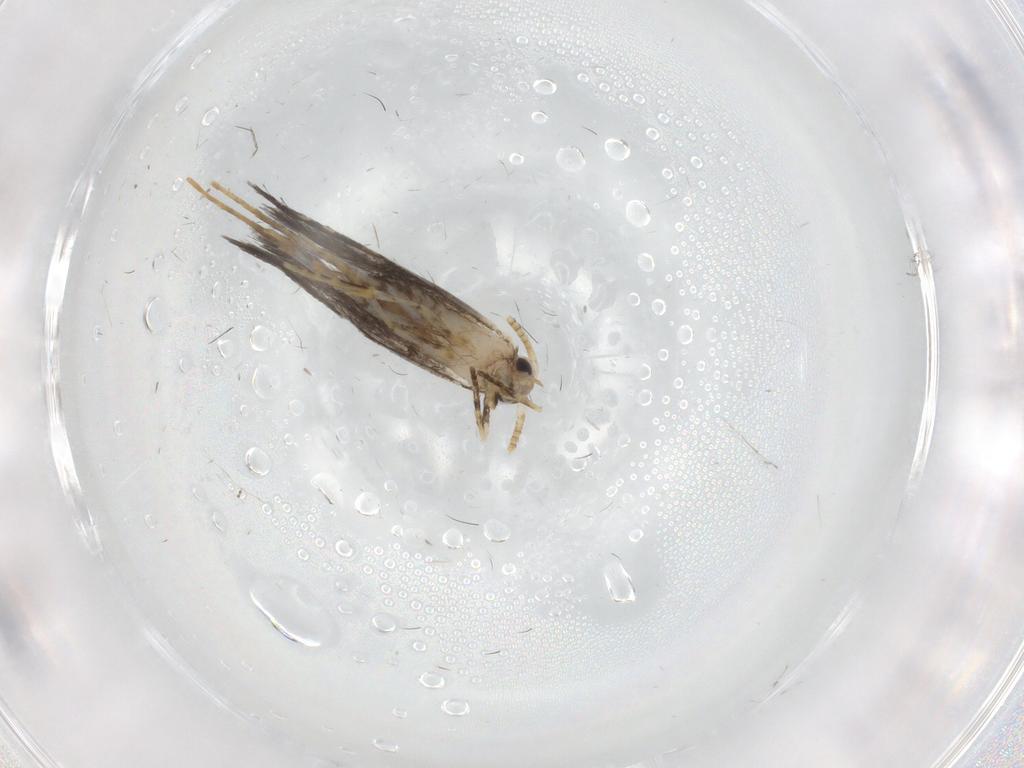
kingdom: Animalia
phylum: Arthropoda
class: Insecta
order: Lepidoptera
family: Tineidae
